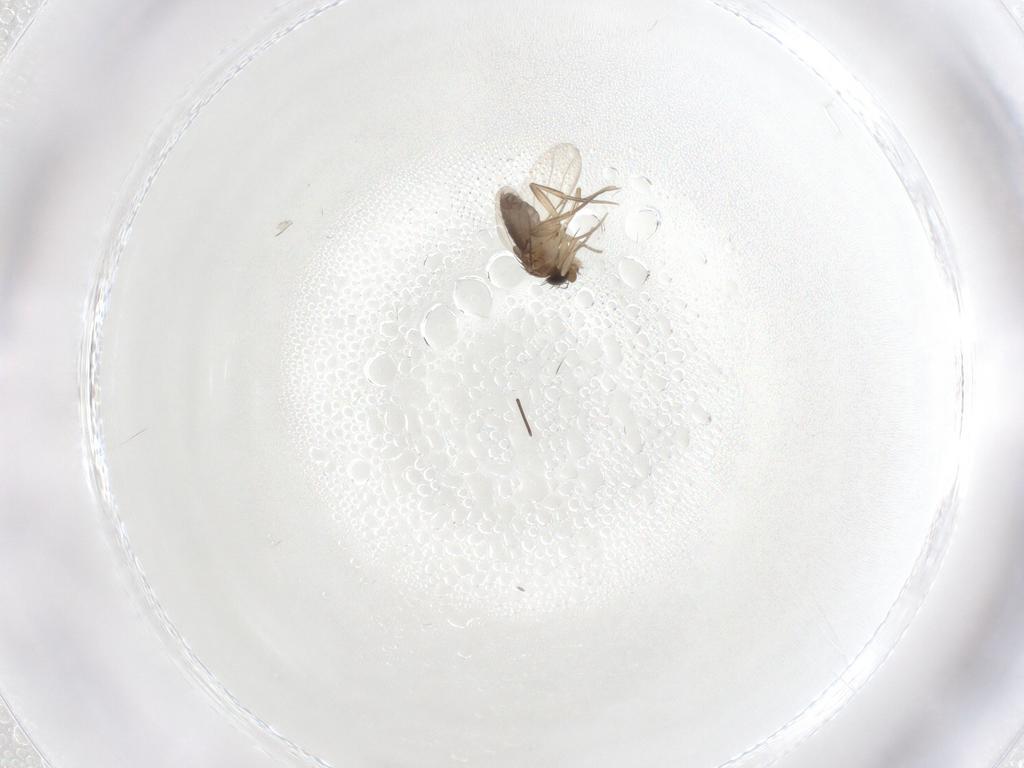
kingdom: Animalia
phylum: Arthropoda
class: Insecta
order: Diptera
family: Phoridae
